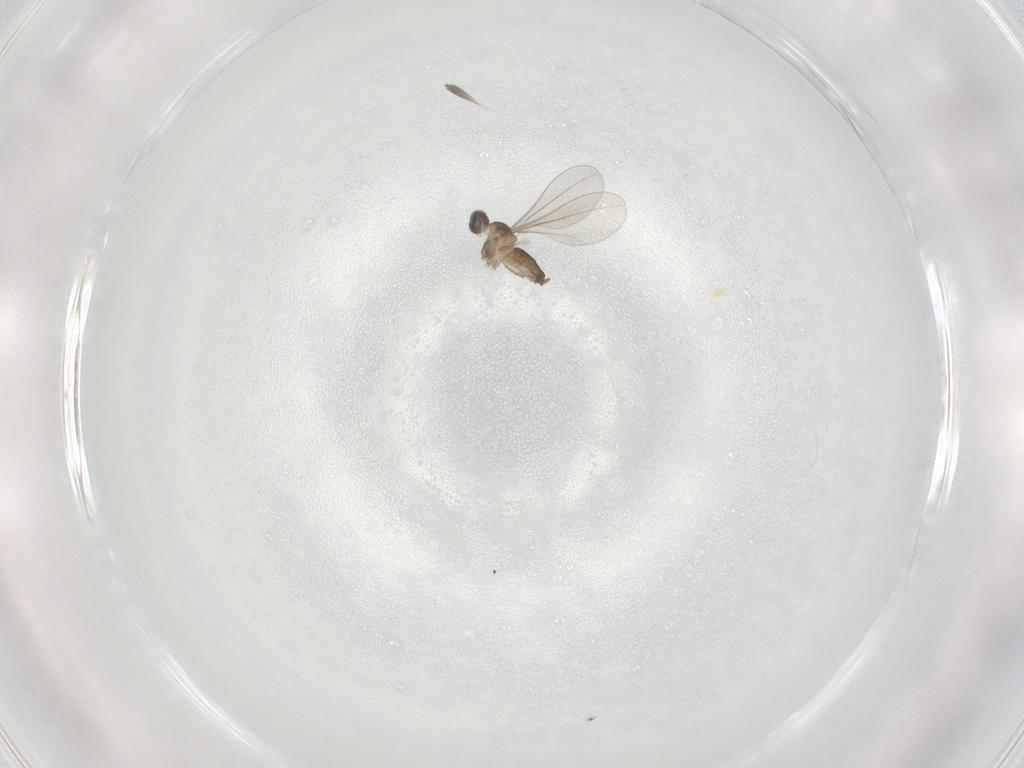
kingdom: Animalia
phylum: Arthropoda
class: Insecta
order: Diptera
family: Cecidomyiidae
